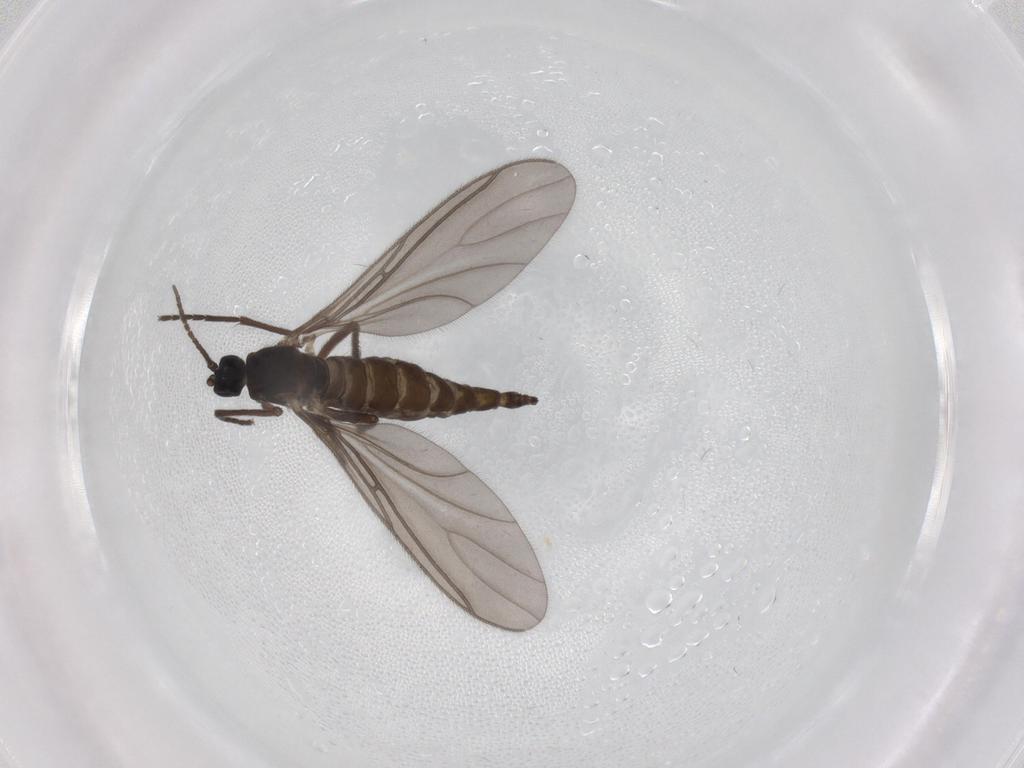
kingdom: Animalia
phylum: Arthropoda
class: Insecta
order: Diptera
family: Sciaridae
